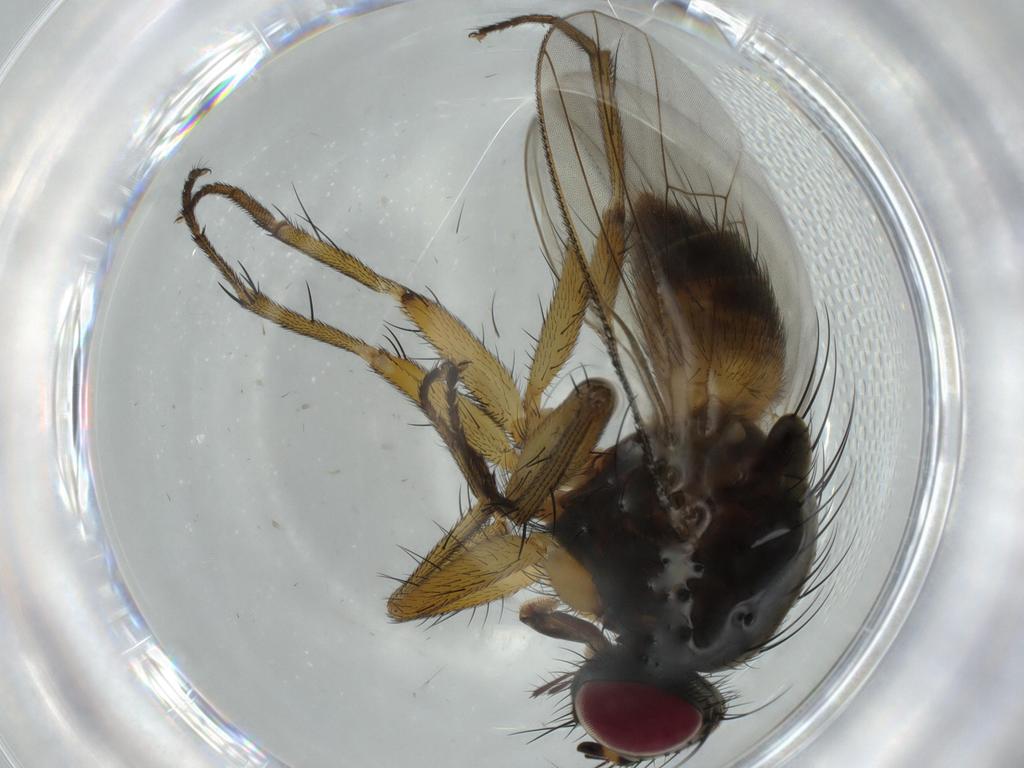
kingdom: Animalia
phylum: Arthropoda
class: Insecta
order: Diptera
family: Muscidae
